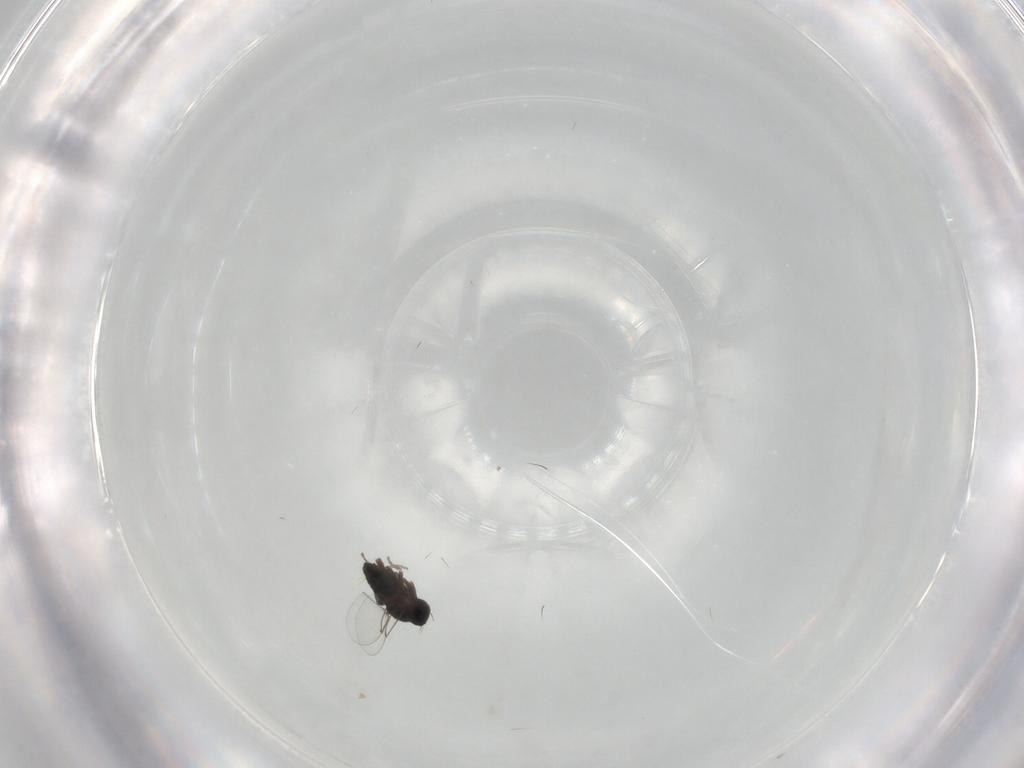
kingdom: Animalia
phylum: Arthropoda
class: Insecta
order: Diptera
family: Phoridae
